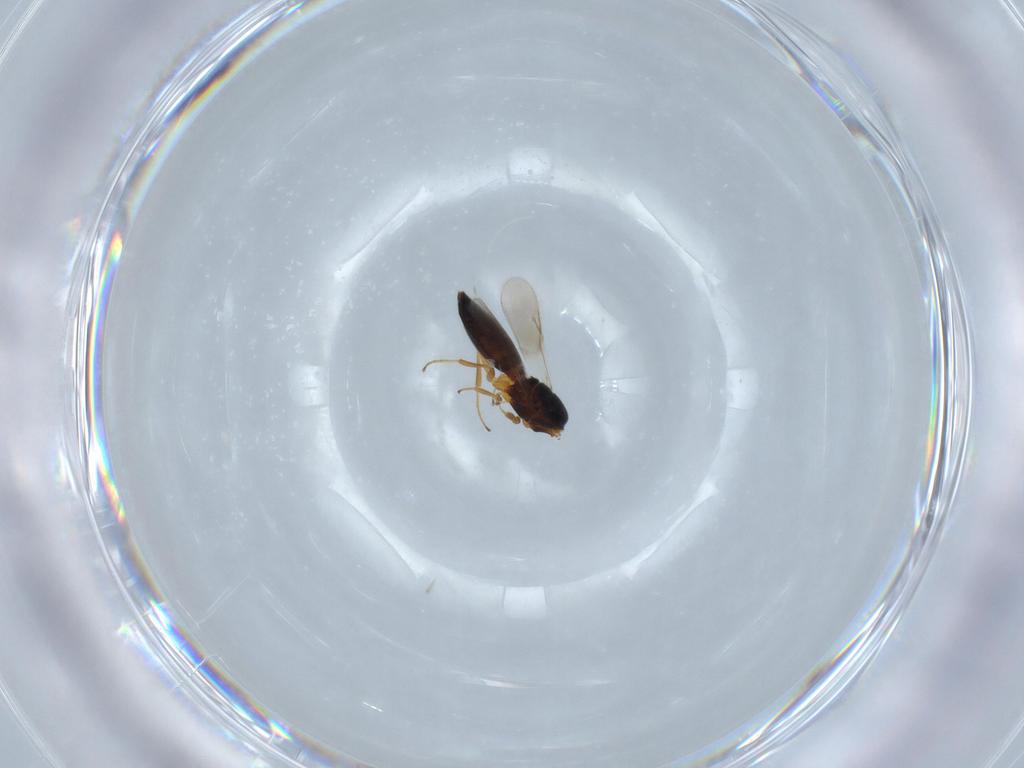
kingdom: Animalia
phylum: Arthropoda
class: Insecta
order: Hymenoptera
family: Scelionidae
